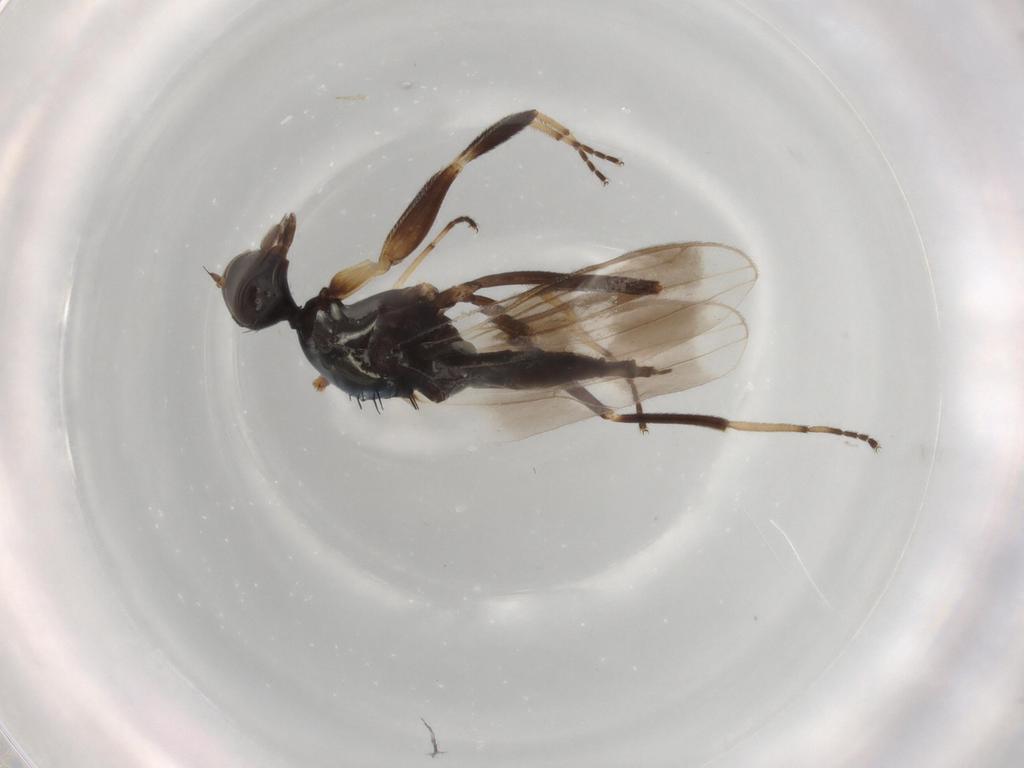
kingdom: Animalia
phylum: Arthropoda
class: Insecta
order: Diptera
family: Hybotidae
